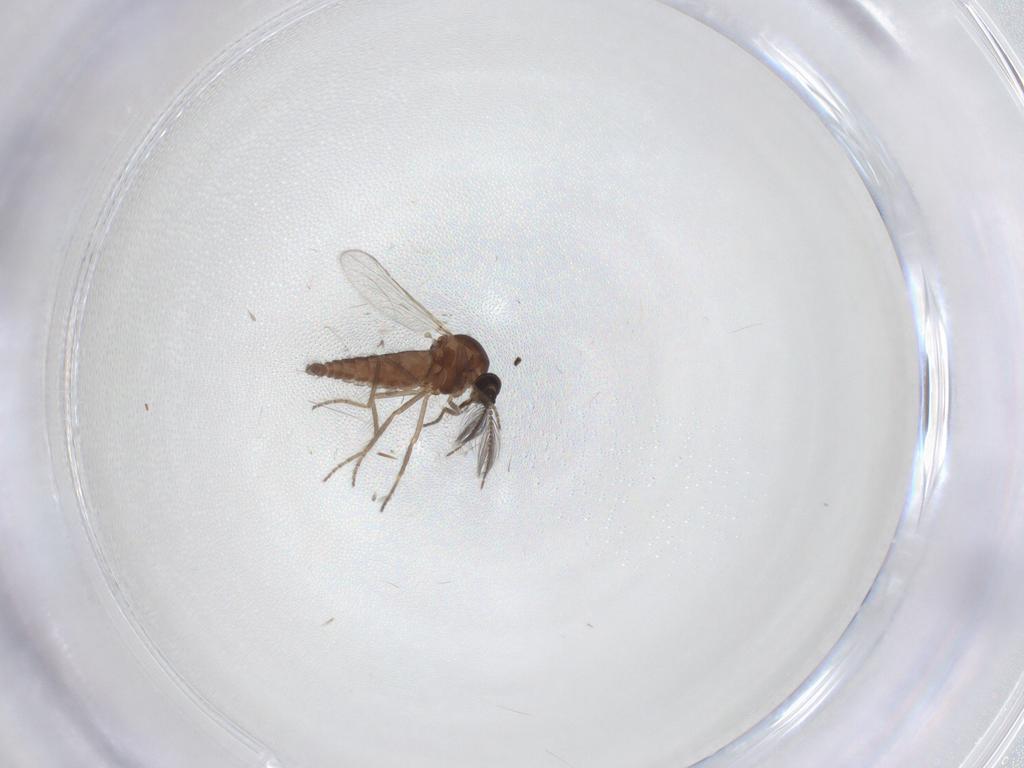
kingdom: Animalia
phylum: Arthropoda
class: Insecta
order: Diptera
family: Ceratopogonidae
